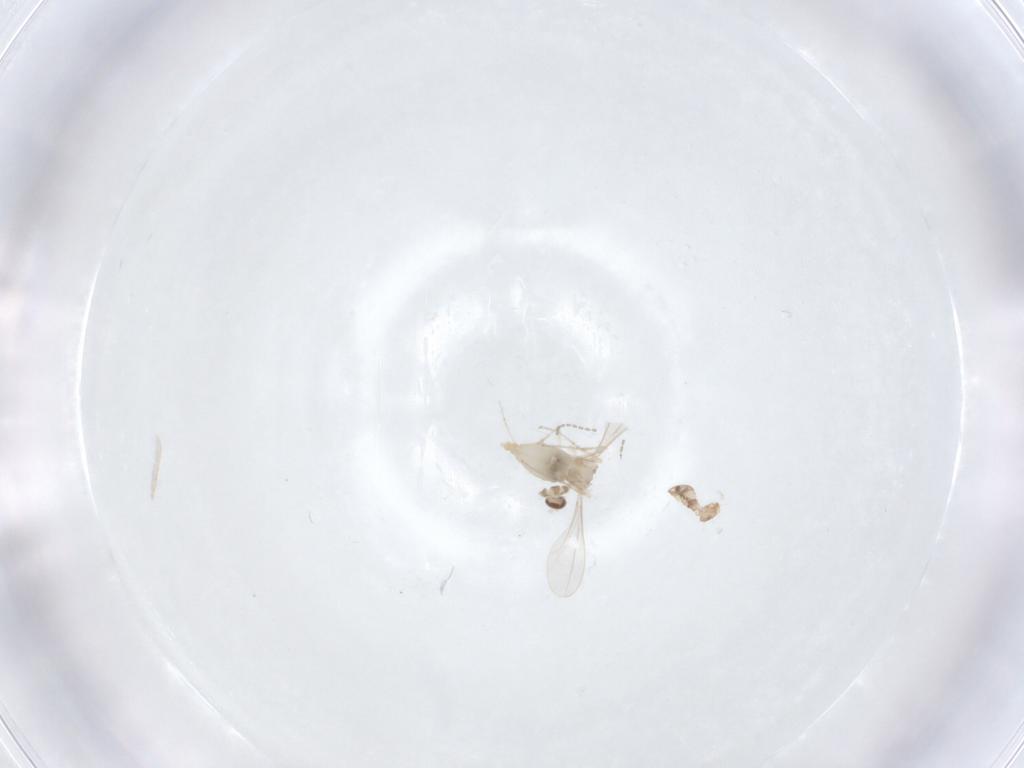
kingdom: Animalia
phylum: Arthropoda
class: Insecta
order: Diptera
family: Cecidomyiidae
